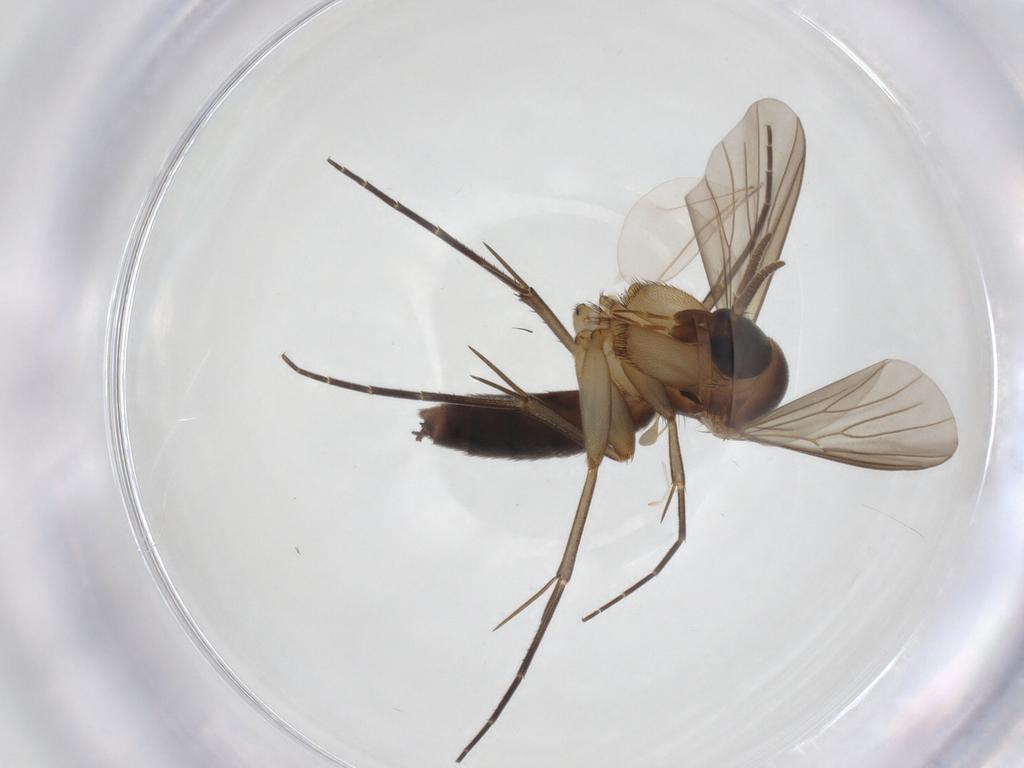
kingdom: Animalia
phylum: Arthropoda
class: Insecta
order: Diptera
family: Mycetophilidae
